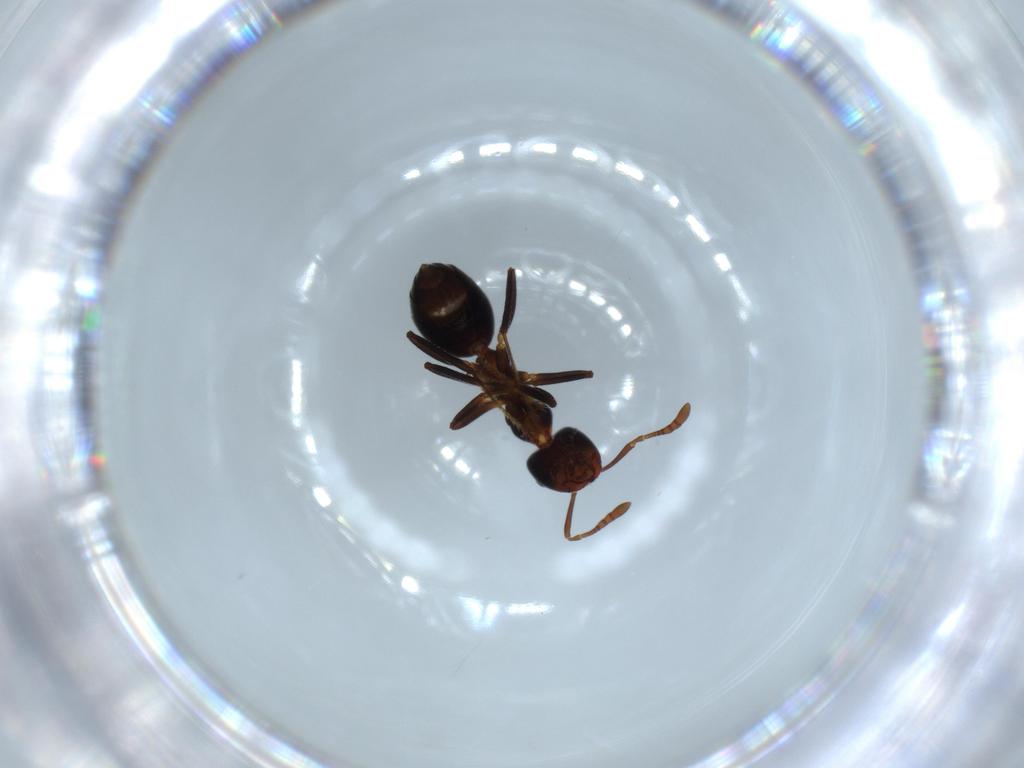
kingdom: Animalia
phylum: Arthropoda
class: Insecta
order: Hymenoptera
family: Formicidae
